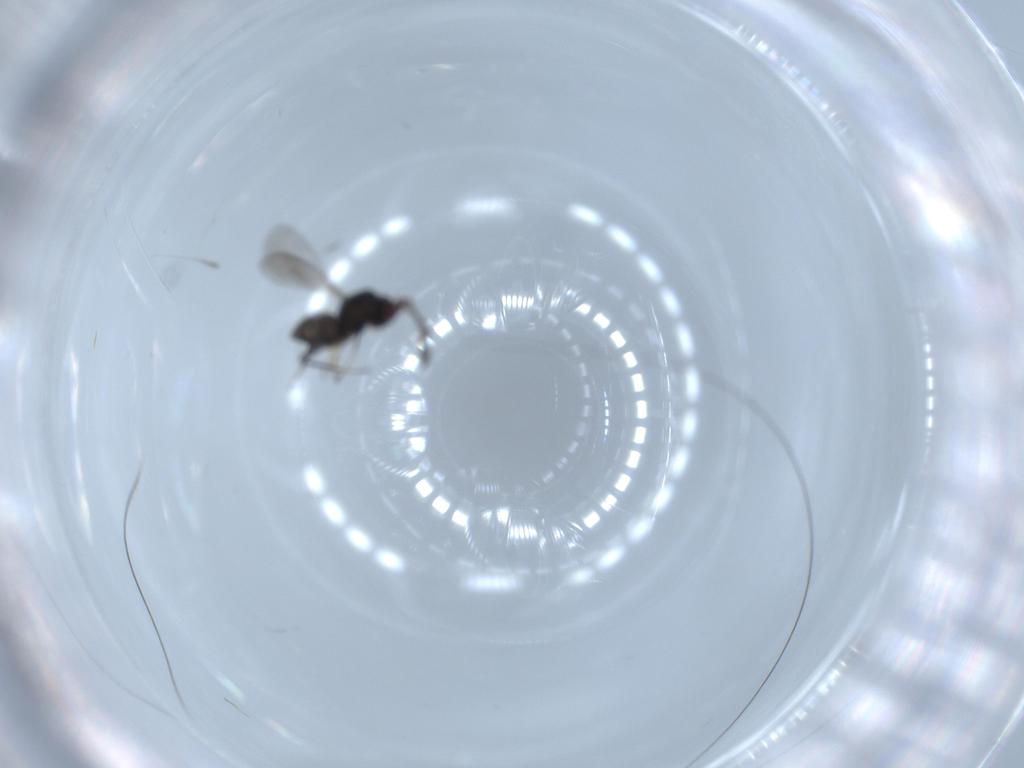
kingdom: Animalia
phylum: Arthropoda
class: Insecta
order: Hymenoptera
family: Mymaridae
